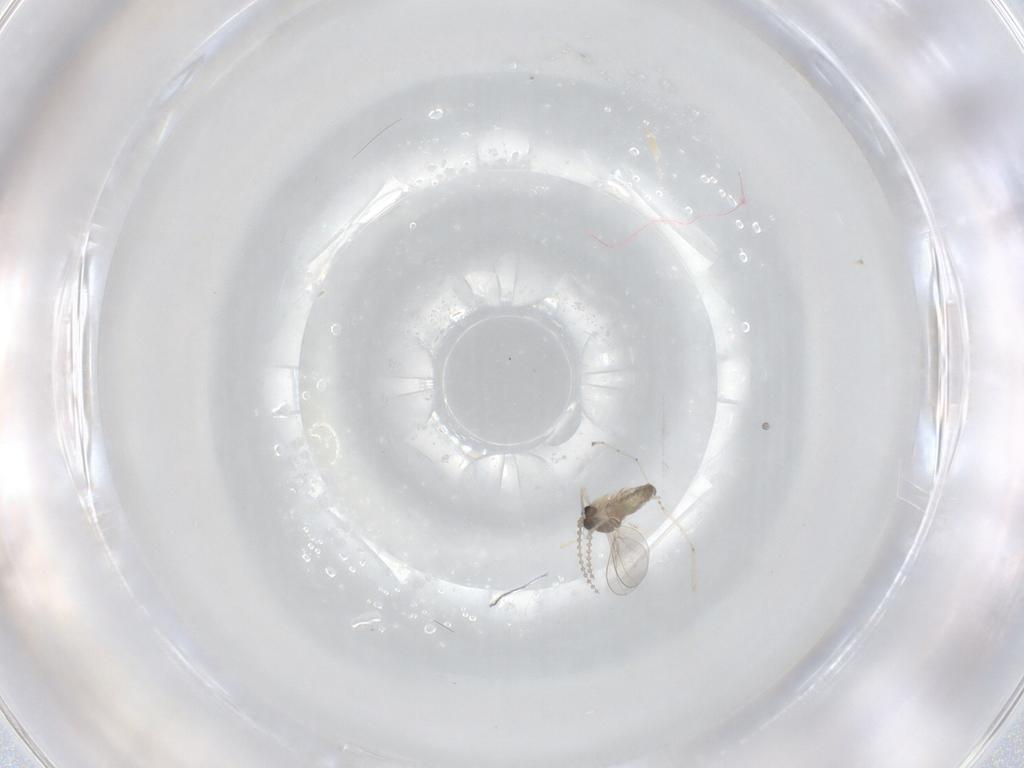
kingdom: Animalia
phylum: Arthropoda
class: Insecta
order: Diptera
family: Cecidomyiidae
